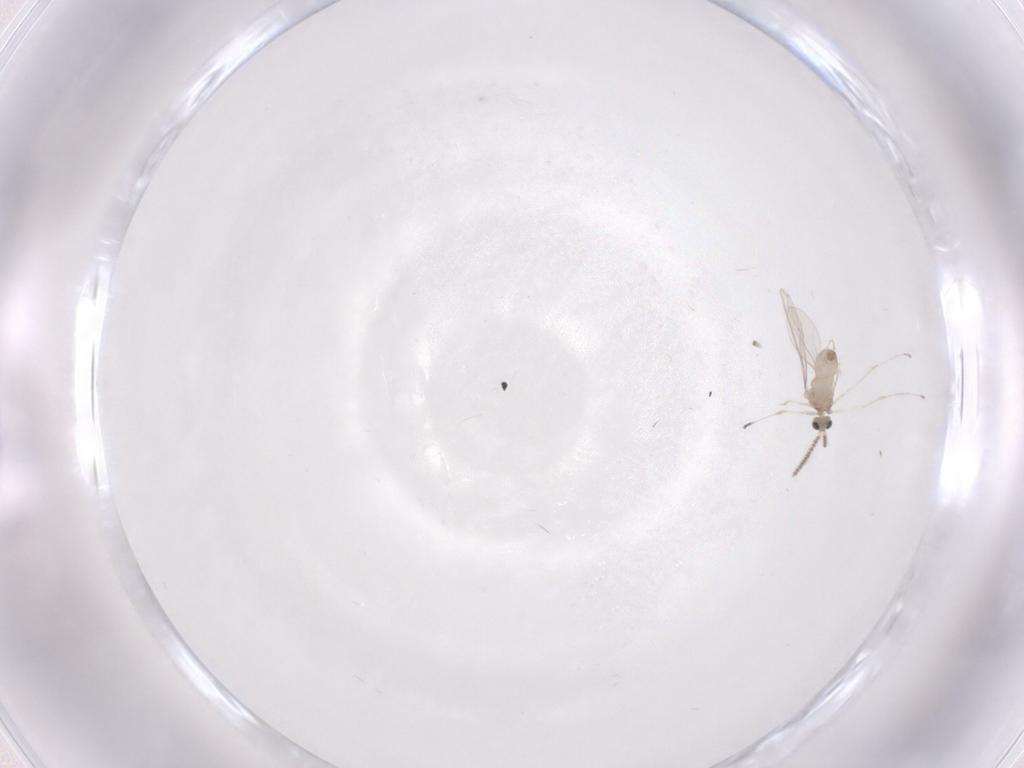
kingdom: Animalia
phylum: Arthropoda
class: Insecta
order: Diptera
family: Cecidomyiidae
